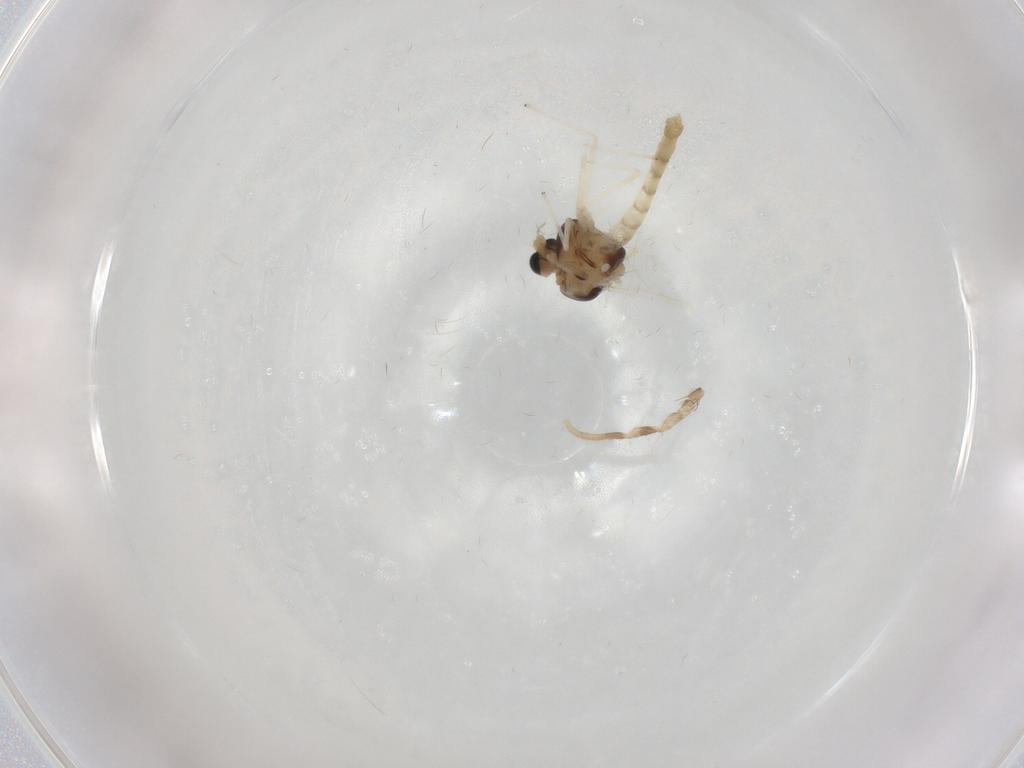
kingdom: Animalia
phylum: Arthropoda
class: Insecta
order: Diptera
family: Chironomidae
